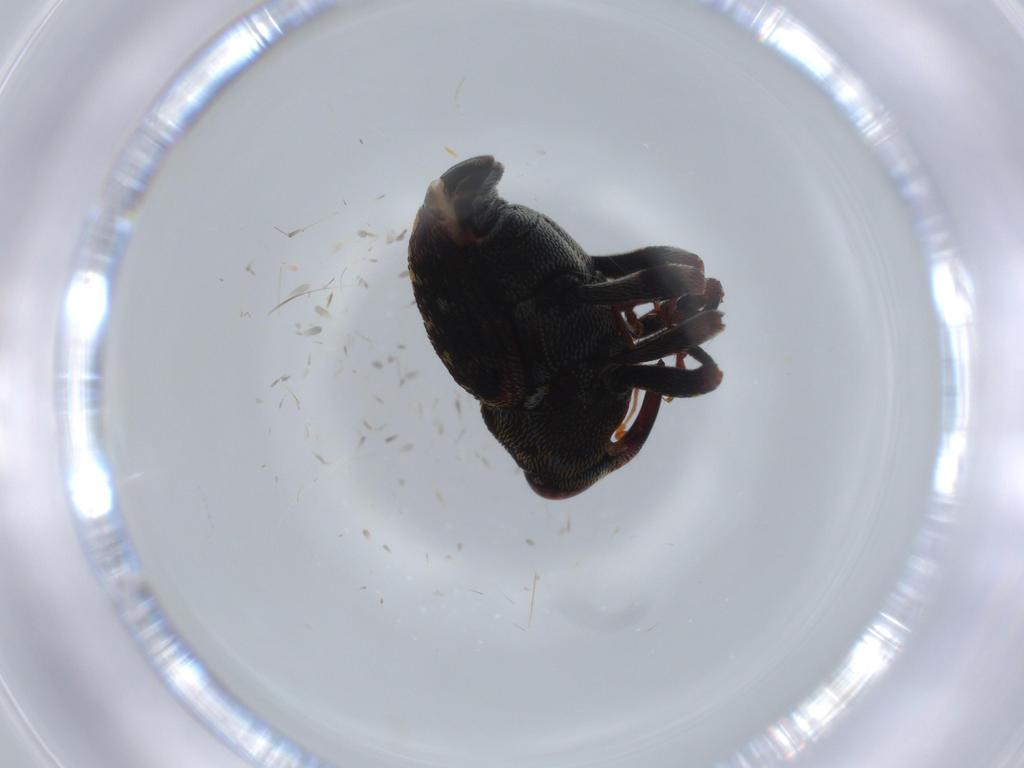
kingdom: Animalia
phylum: Arthropoda
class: Insecta
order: Coleoptera
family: Curculionidae
